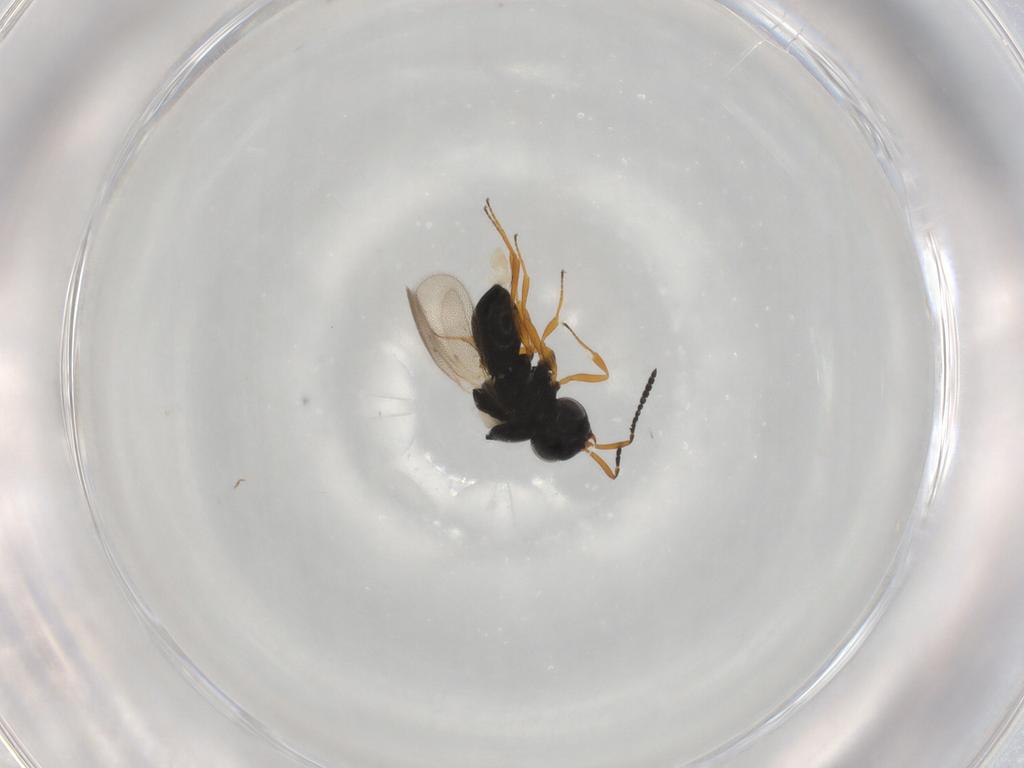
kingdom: Animalia
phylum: Arthropoda
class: Insecta
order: Hymenoptera
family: Scelionidae
